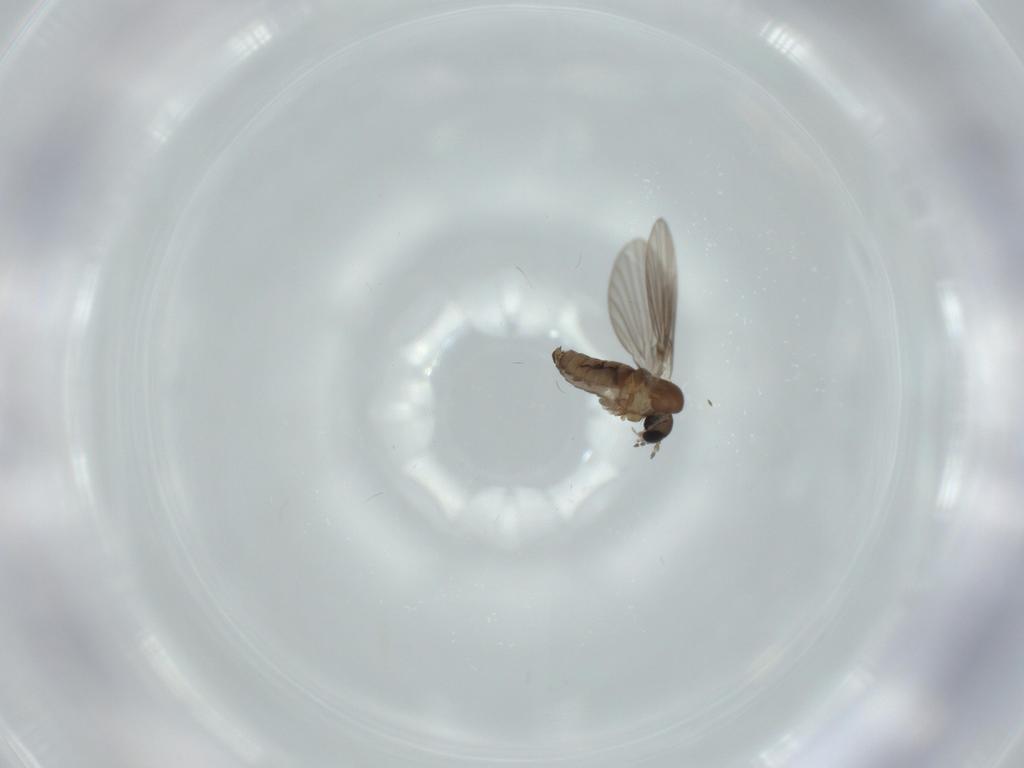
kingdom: Animalia
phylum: Arthropoda
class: Insecta
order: Diptera
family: Psychodidae
